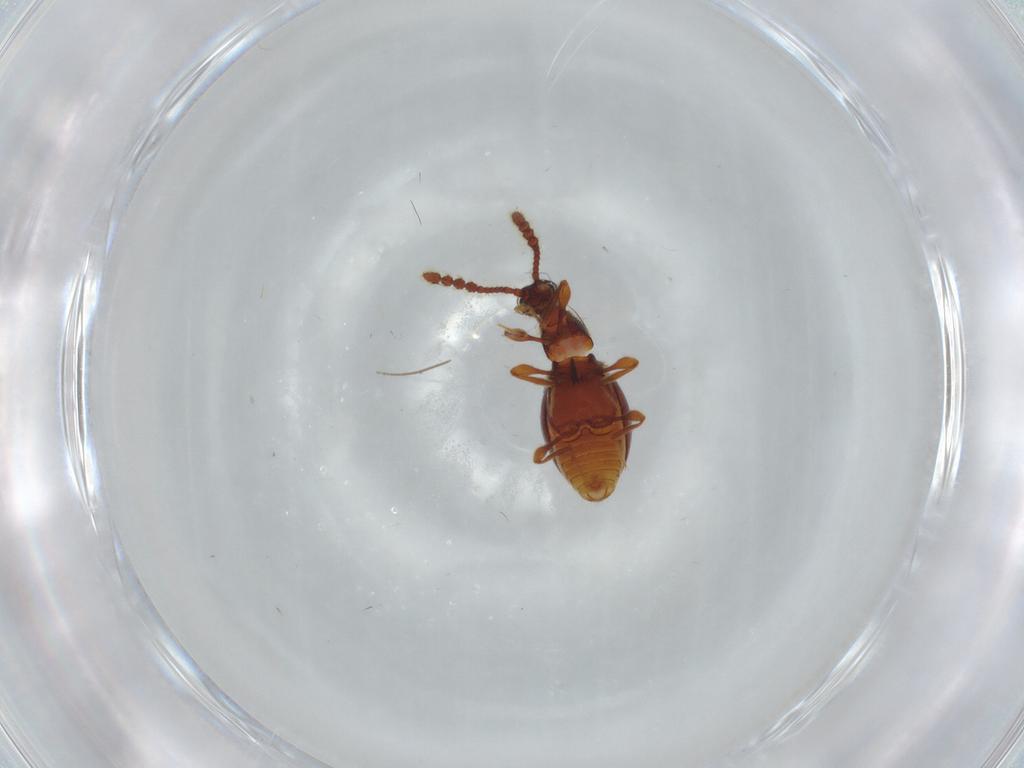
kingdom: Animalia
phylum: Arthropoda
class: Insecta
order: Coleoptera
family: Staphylinidae
